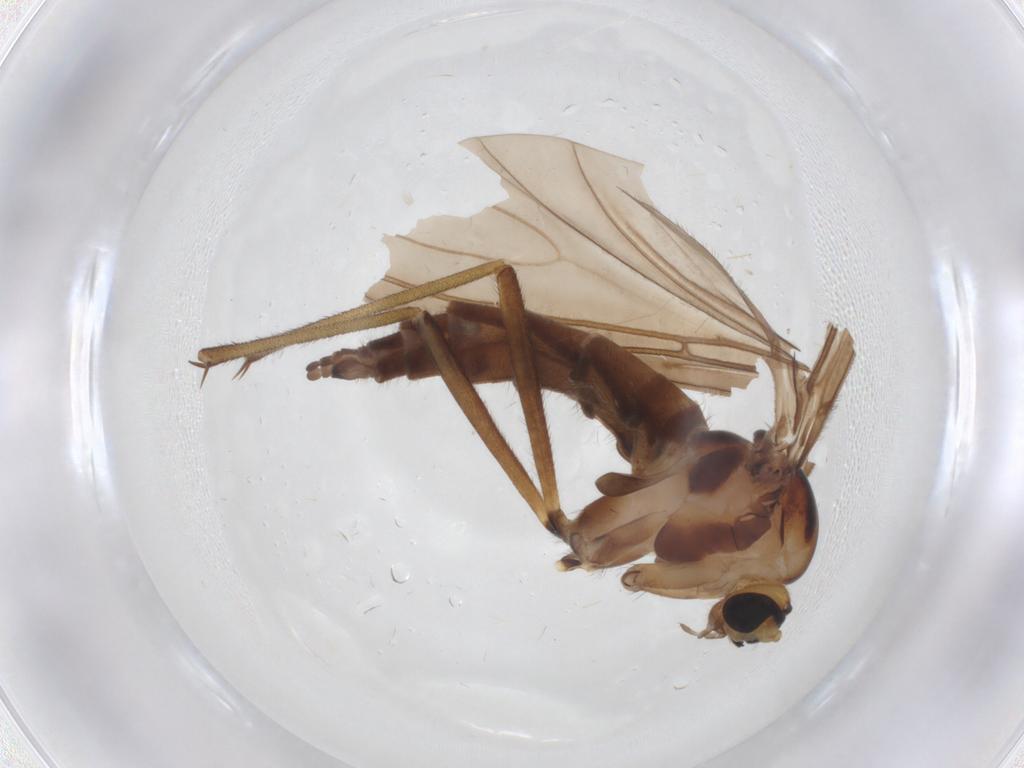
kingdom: Animalia
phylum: Arthropoda
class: Insecta
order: Diptera
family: Sciaridae
